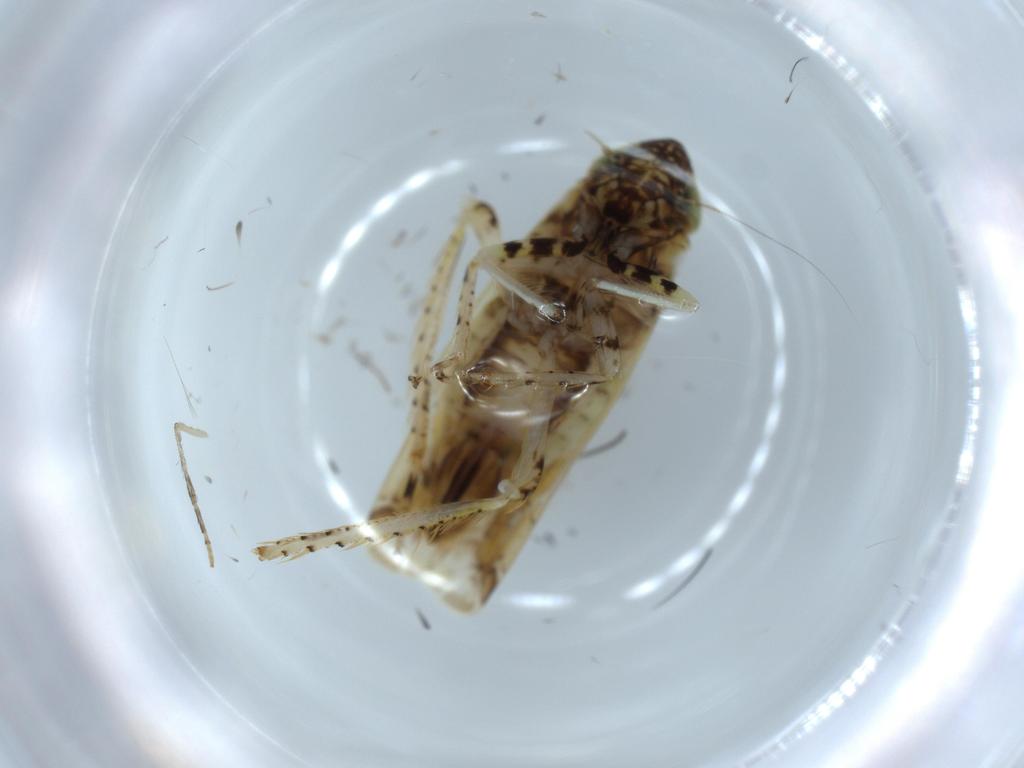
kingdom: Animalia
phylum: Arthropoda
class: Insecta
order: Hemiptera
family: Cicadellidae
